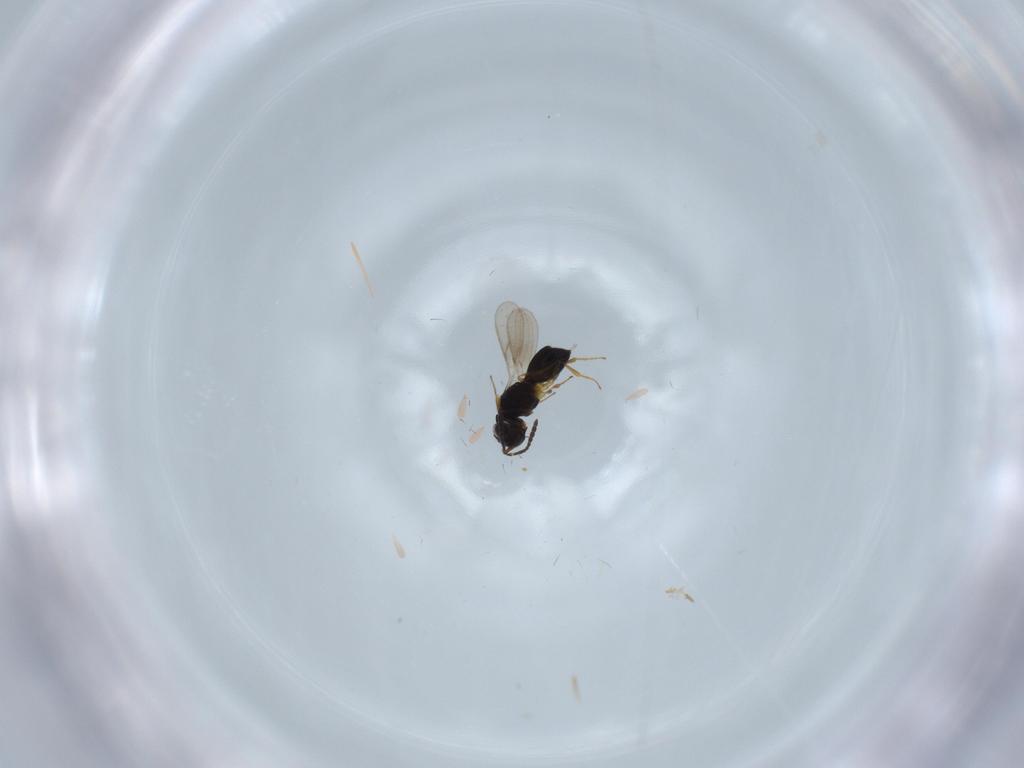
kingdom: Animalia
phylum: Arthropoda
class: Insecta
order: Hymenoptera
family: Scelionidae
